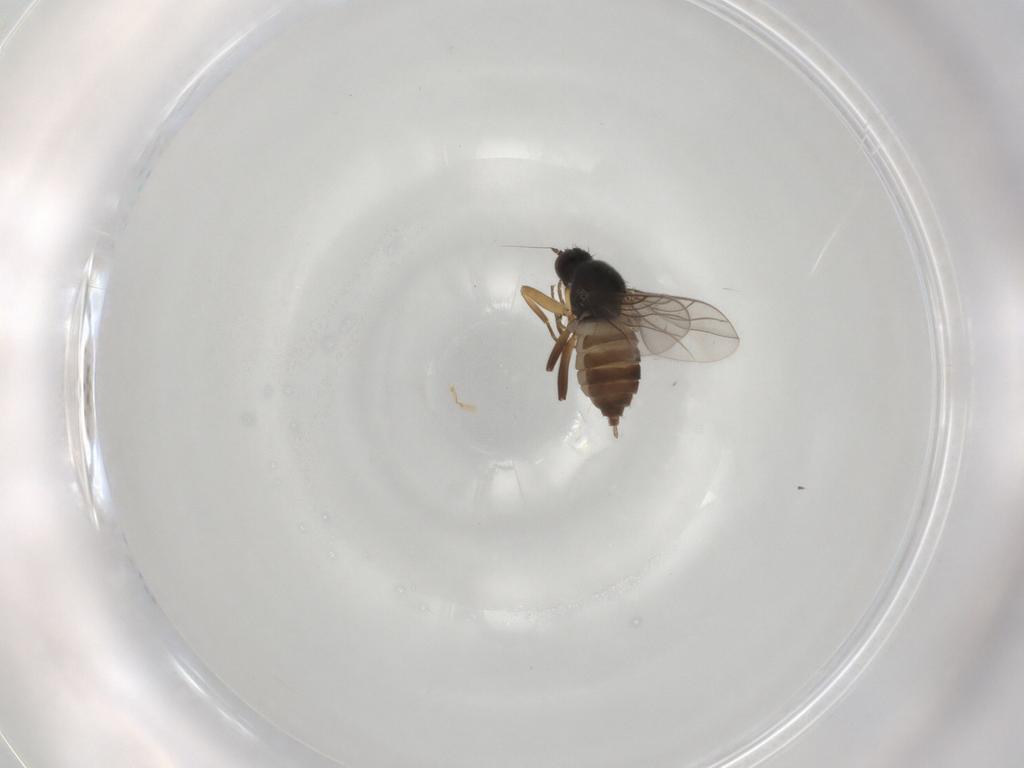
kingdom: Animalia
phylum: Arthropoda
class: Insecta
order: Diptera
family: Hybotidae
